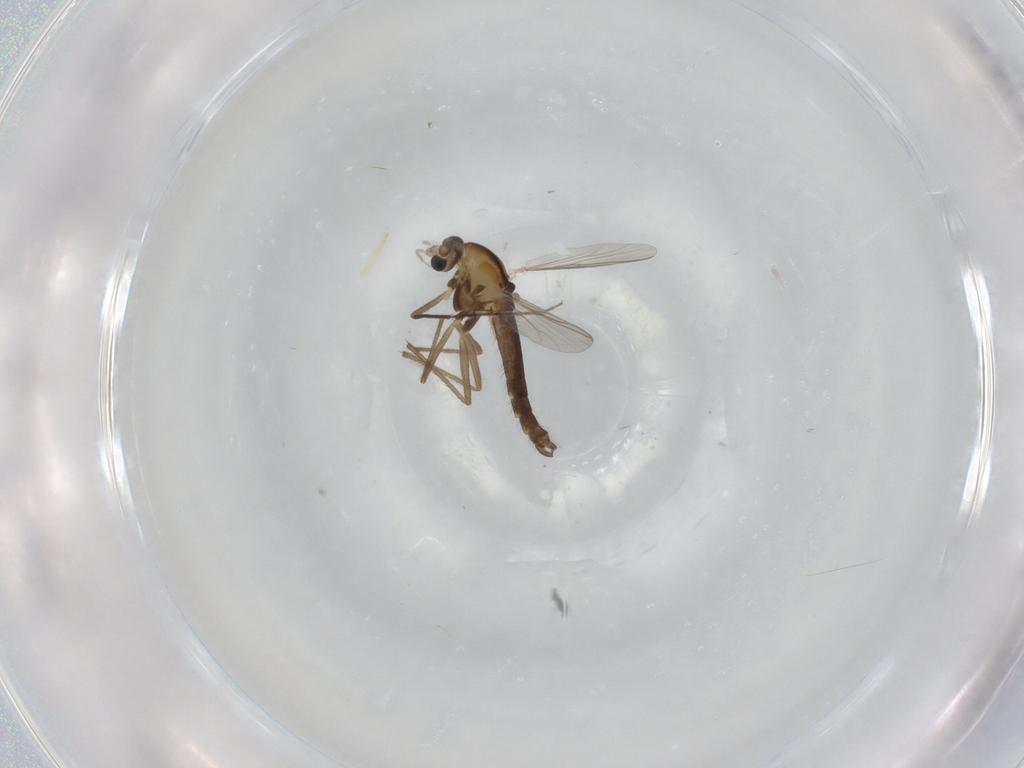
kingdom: Animalia
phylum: Arthropoda
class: Insecta
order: Diptera
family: Chironomidae
